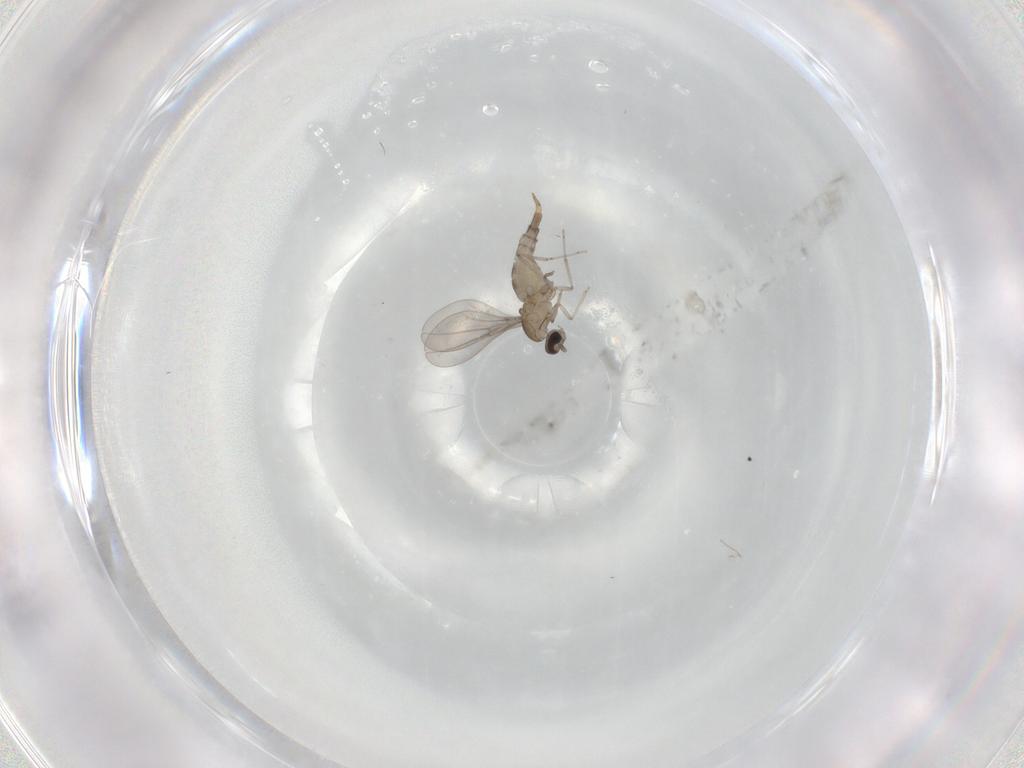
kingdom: Animalia
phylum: Arthropoda
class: Insecta
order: Diptera
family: Cecidomyiidae
